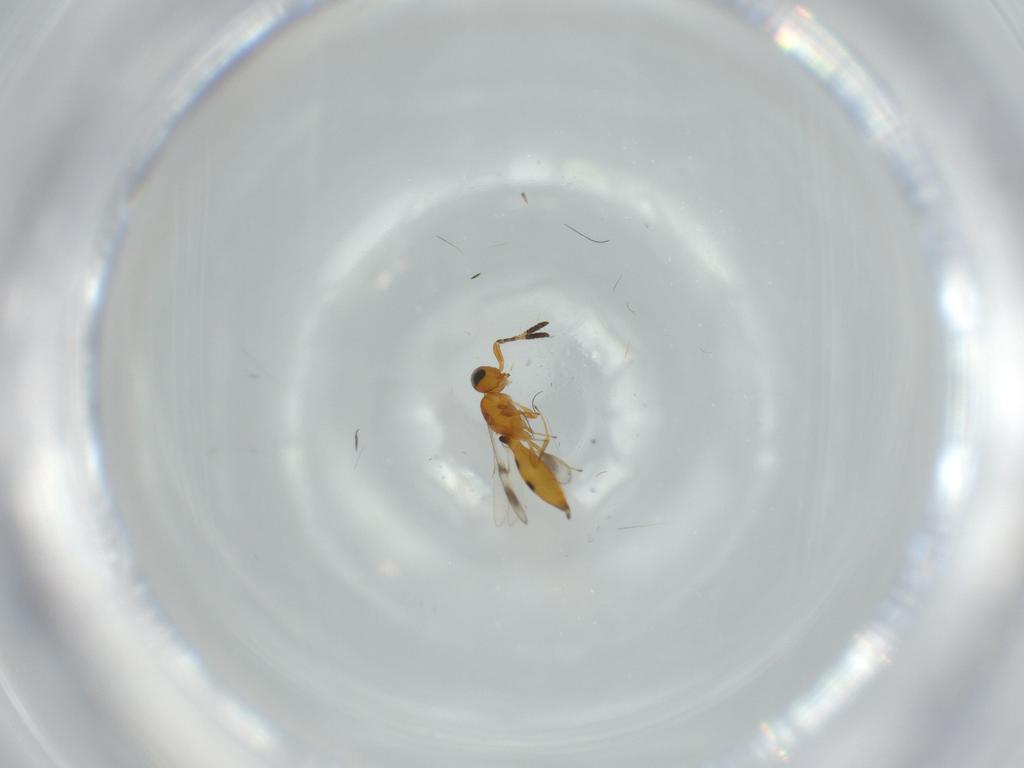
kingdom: Animalia
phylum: Arthropoda
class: Insecta
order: Hymenoptera
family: Scelionidae
